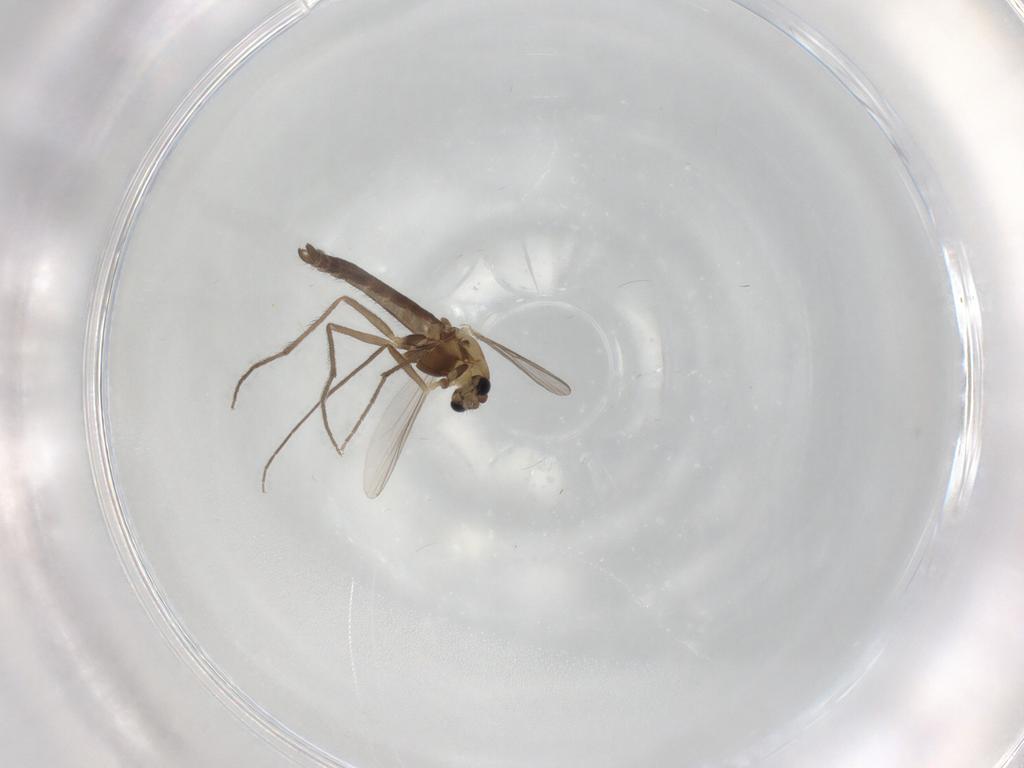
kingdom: Animalia
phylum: Arthropoda
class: Insecta
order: Diptera
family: Chironomidae
